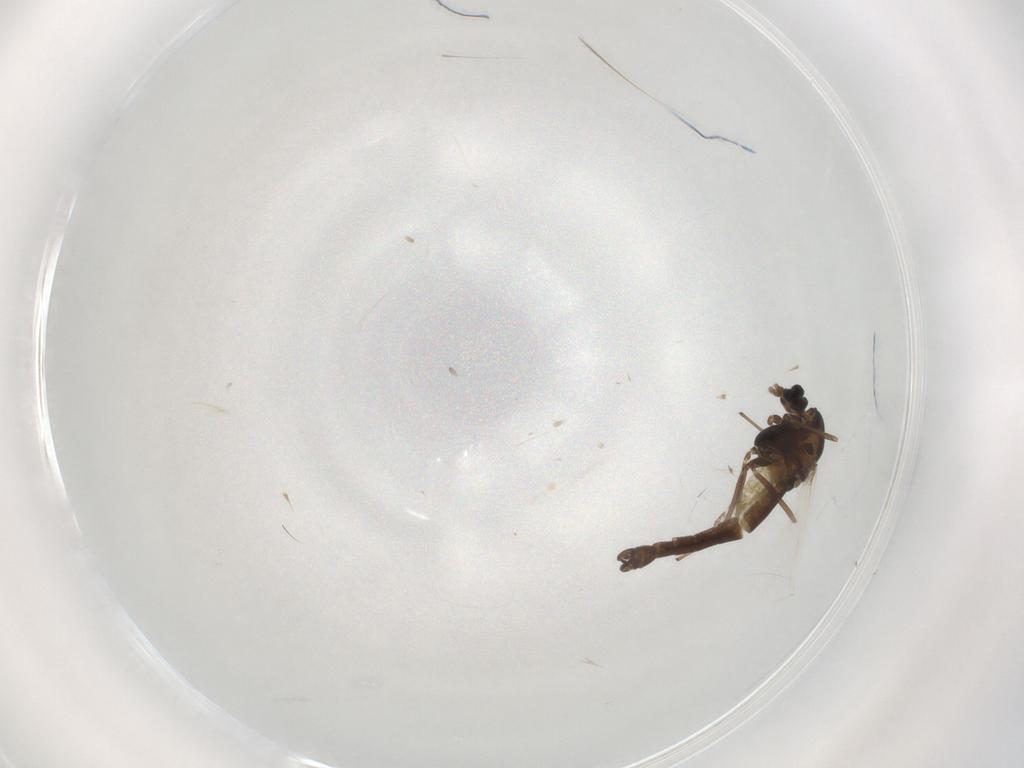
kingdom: Animalia
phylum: Arthropoda
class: Insecta
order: Diptera
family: Chironomidae
